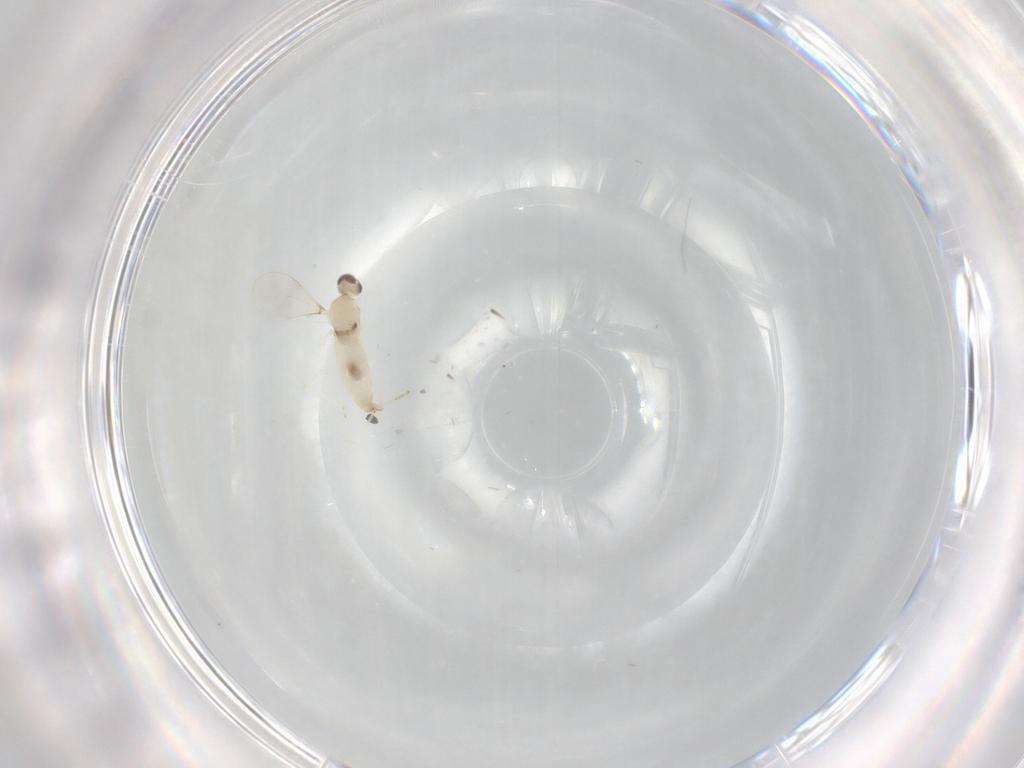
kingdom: Animalia
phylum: Arthropoda
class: Insecta
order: Diptera
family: Cecidomyiidae
